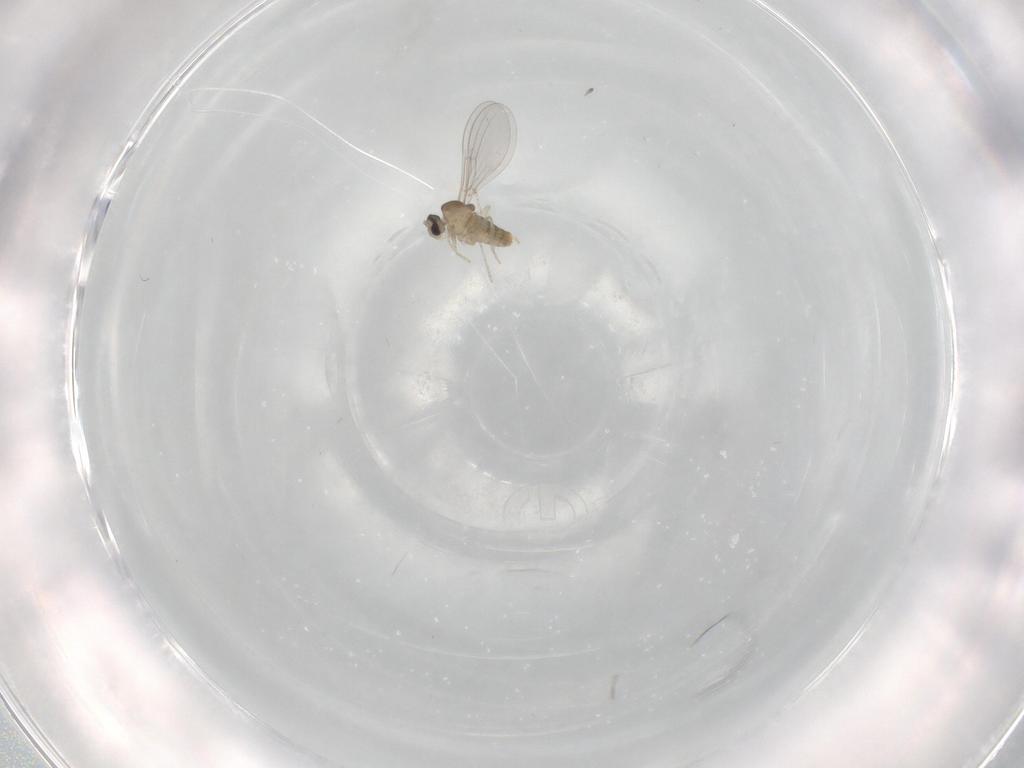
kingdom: Animalia
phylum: Arthropoda
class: Insecta
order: Diptera
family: Cecidomyiidae
